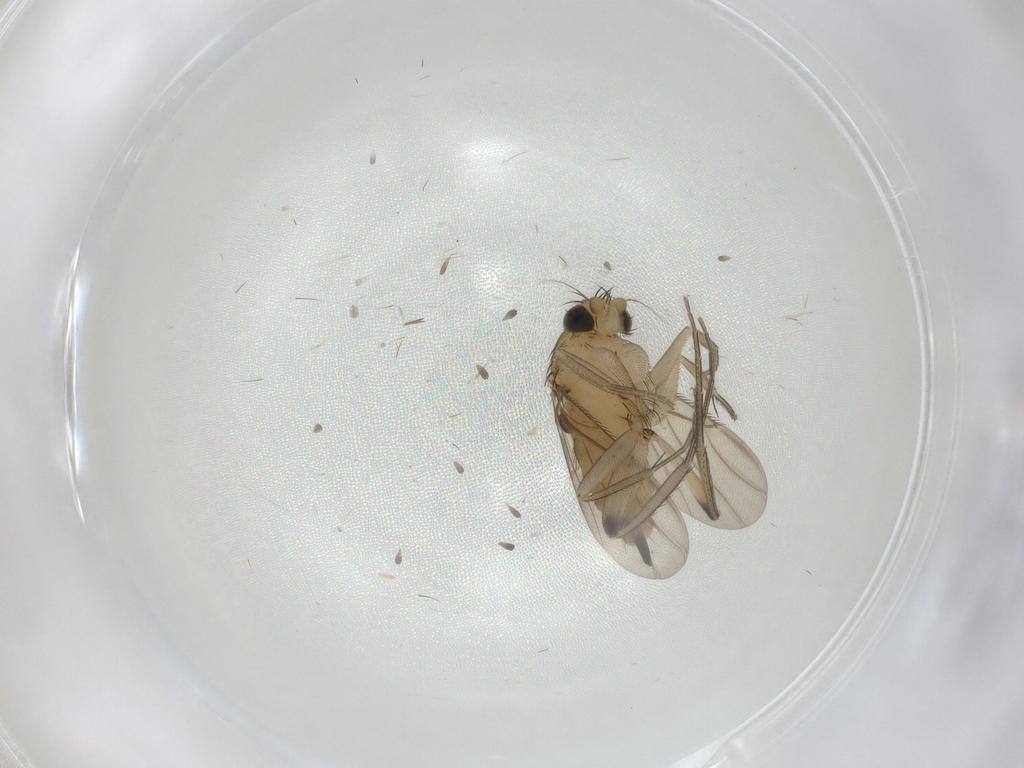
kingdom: Animalia
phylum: Arthropoda
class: Insecta
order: Diptera
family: Phoridae
